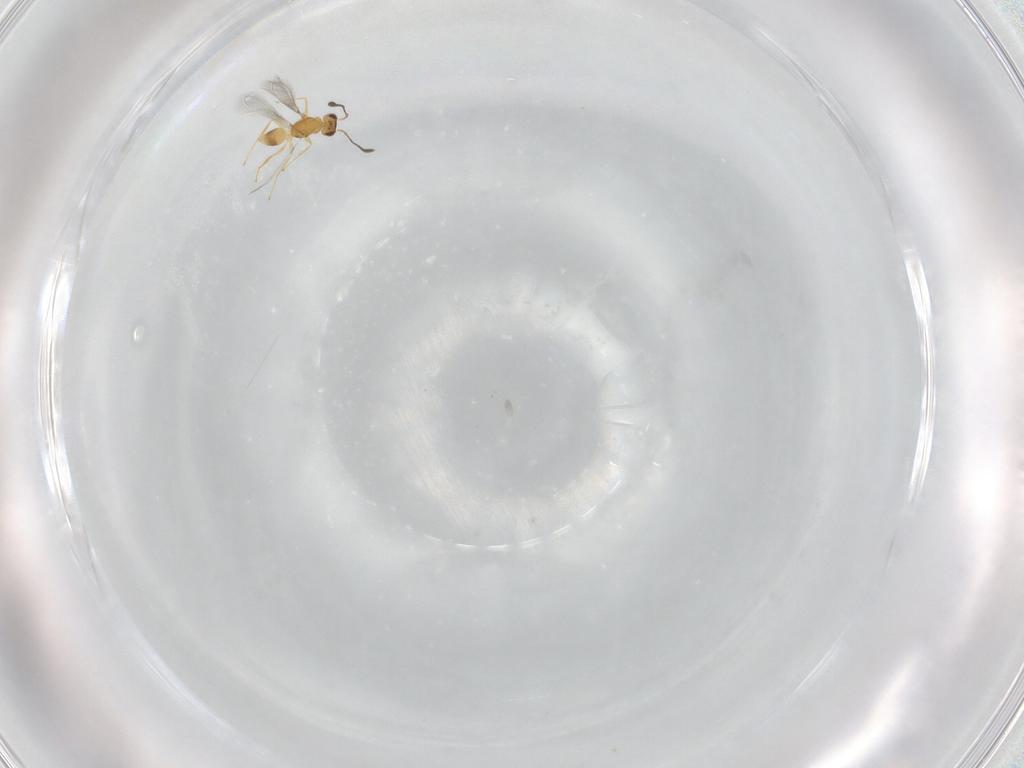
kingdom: Animalia
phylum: Arthropoda
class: Insecta
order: Hymenoptera
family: Mymaridae
